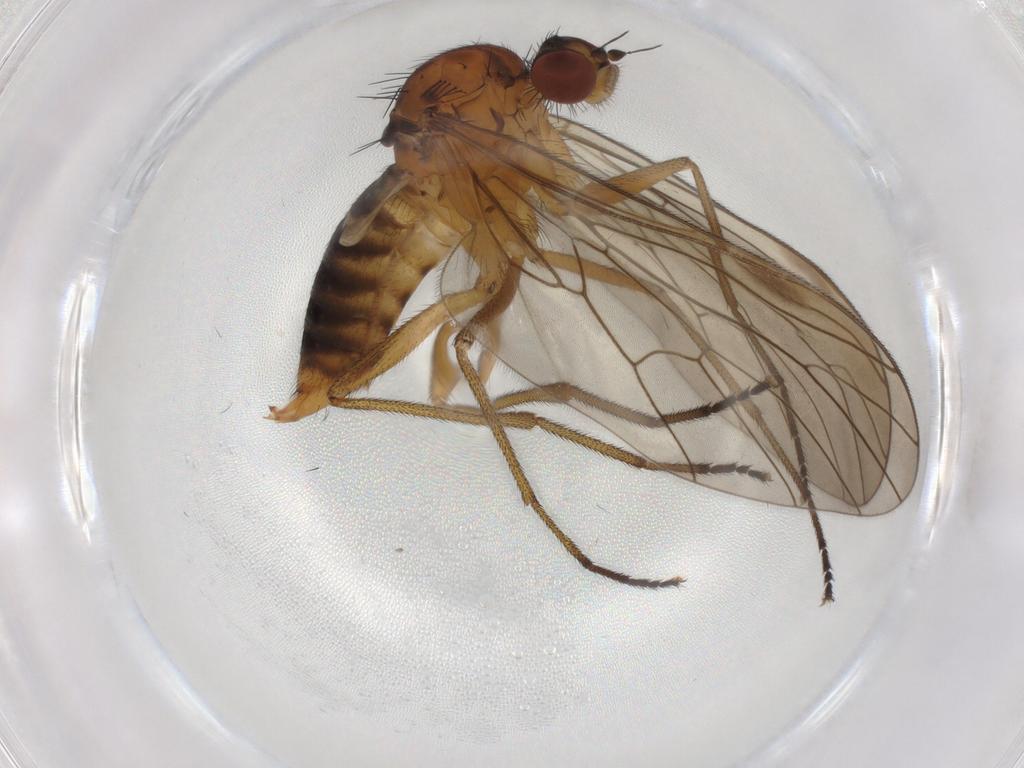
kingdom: Animalia
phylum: Arthropoda
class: Insecta
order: Diptera
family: Brachystomatidae
